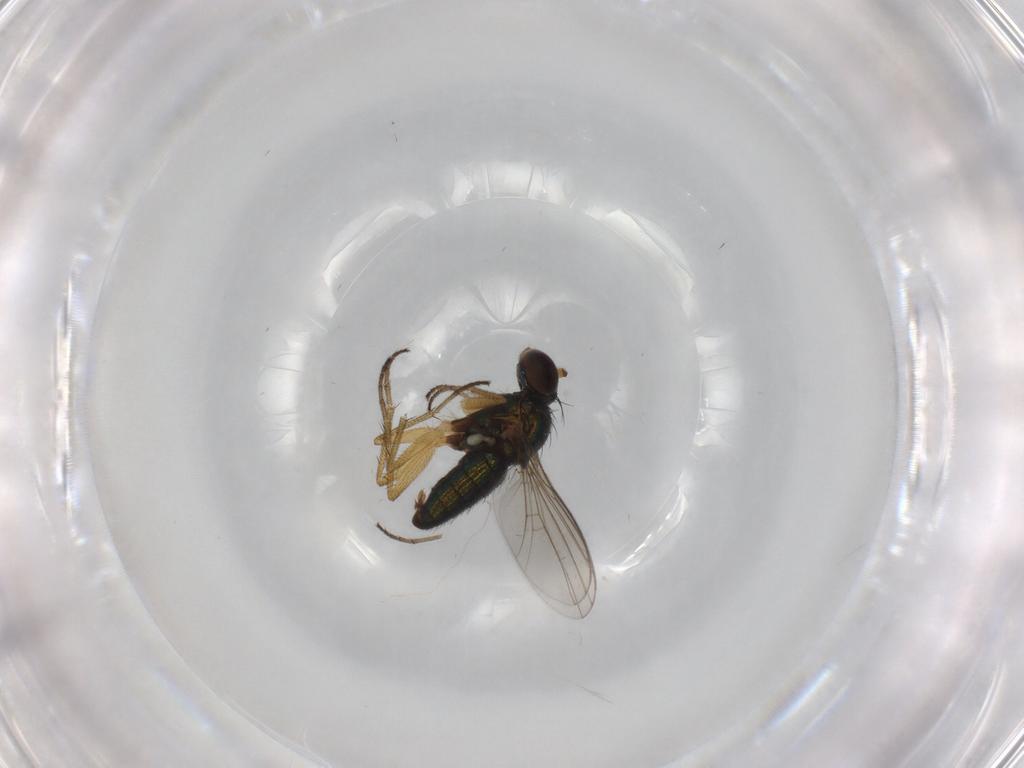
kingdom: Animalia
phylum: Arthropoda
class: Insecta
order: Diptera
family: Dolichopodidae
